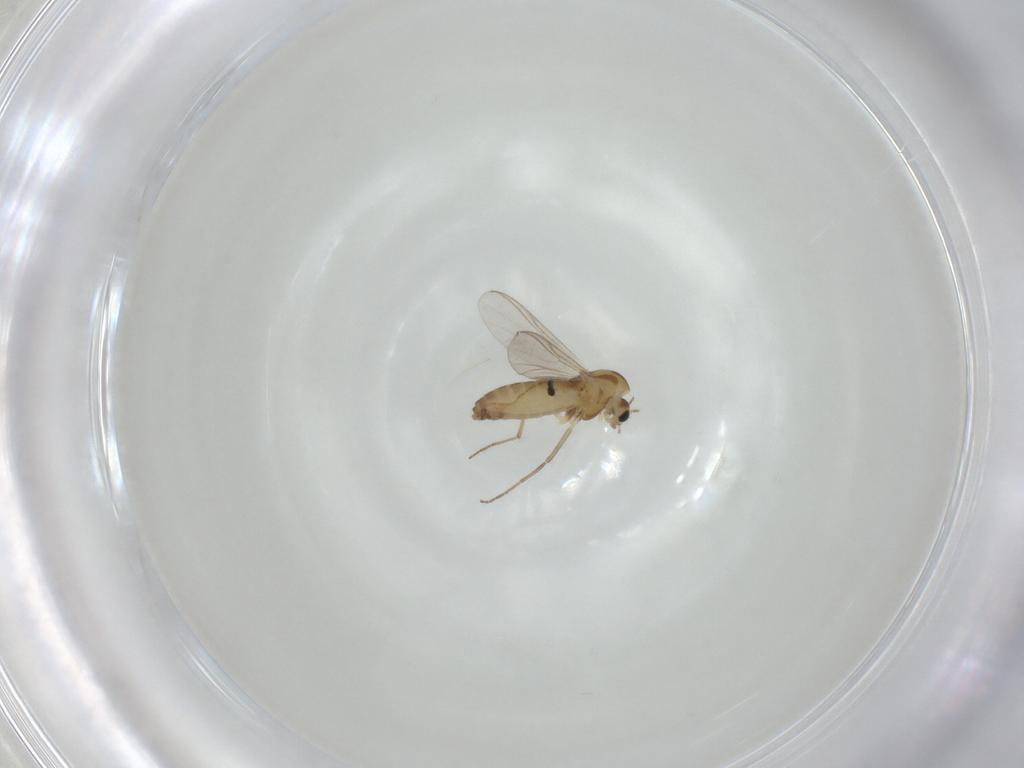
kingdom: Animalia
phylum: Arthropoda
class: Insecta
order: Diptera
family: Chironomidae
